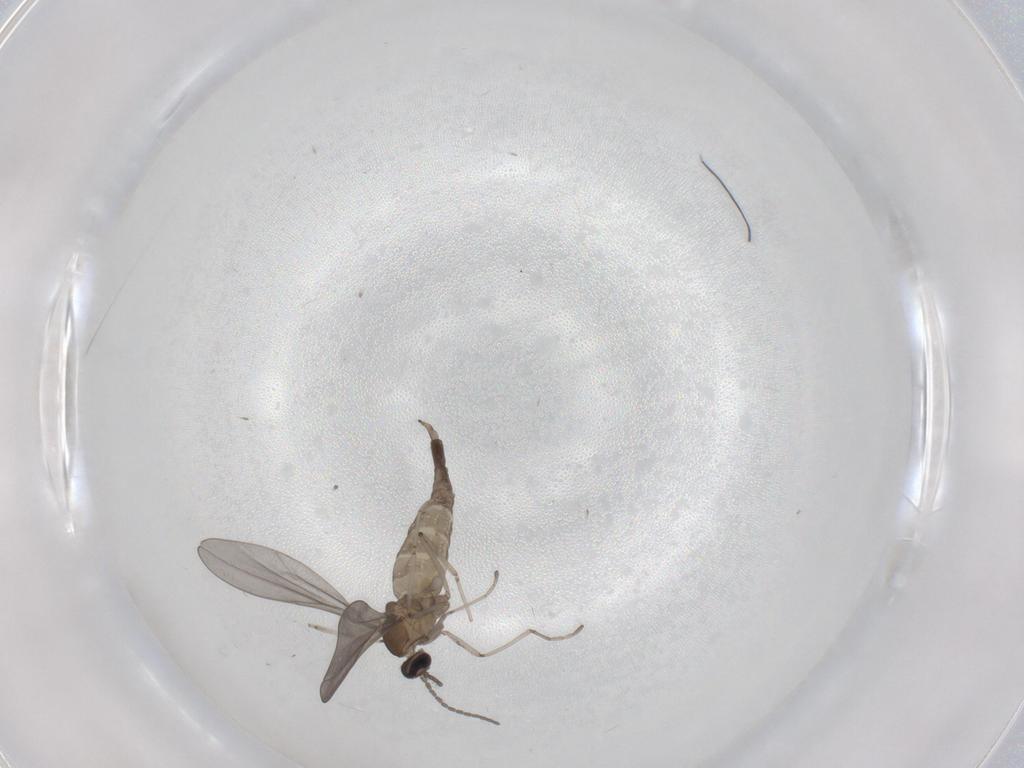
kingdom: Animalia
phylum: Arthropoda
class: Insecta
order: Diptera
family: Cecidomyiidae
